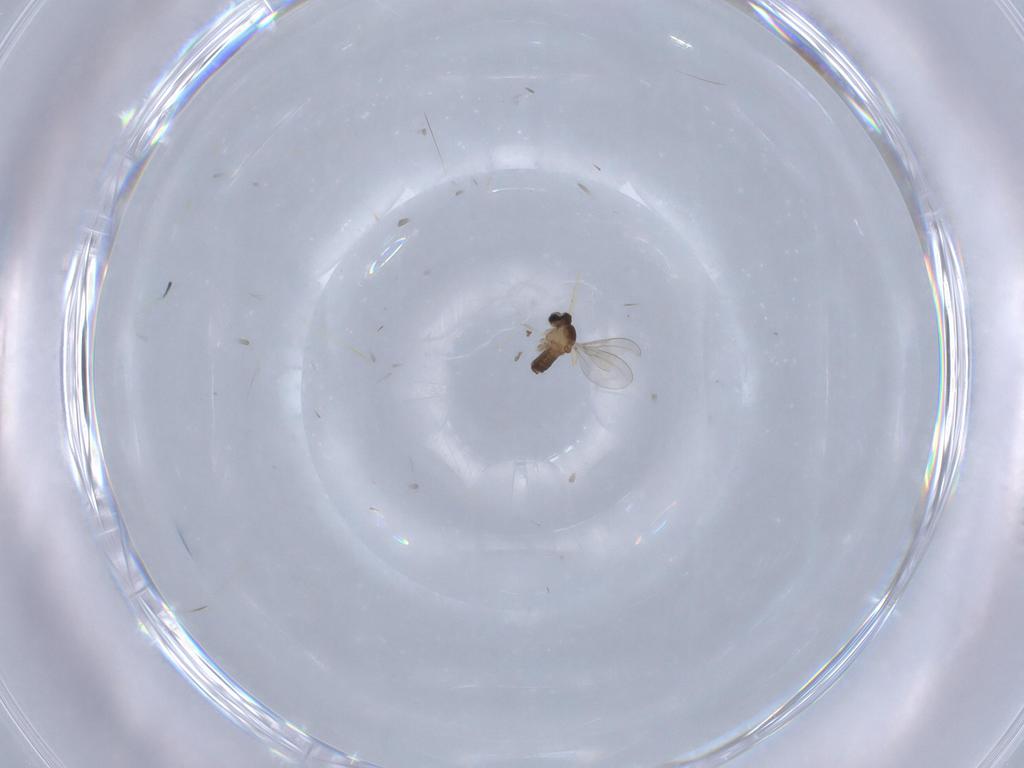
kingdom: Animalia
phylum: Arthropoda
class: Insecta
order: Diptera
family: Cecidomyiidae
